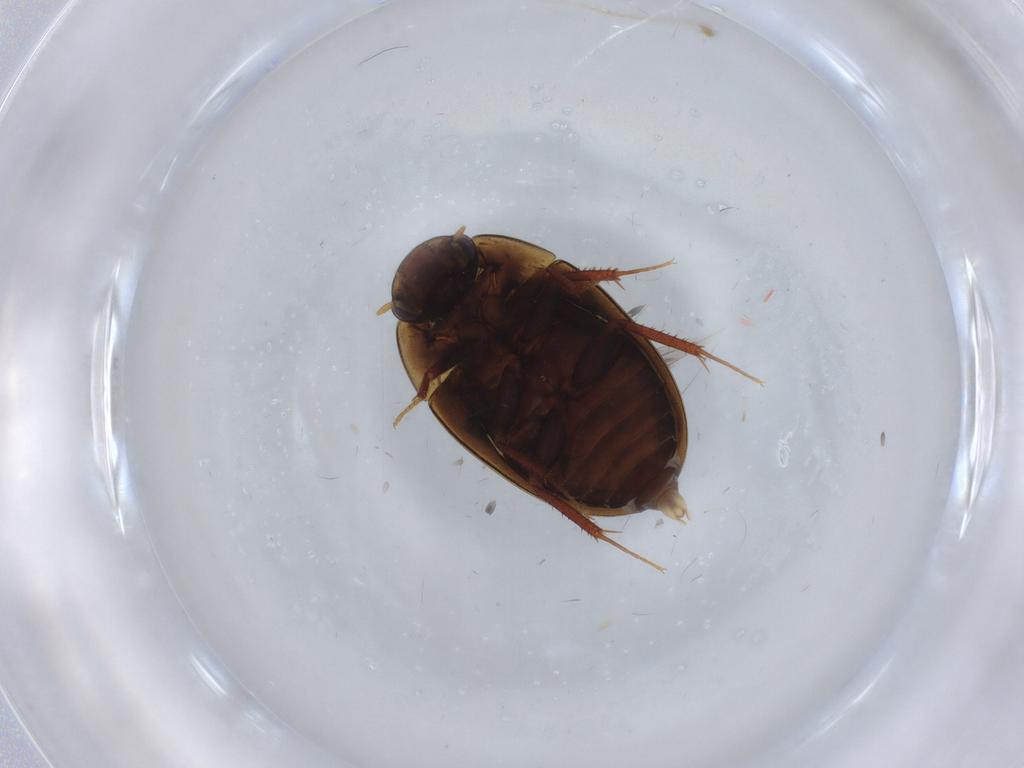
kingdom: Animalia
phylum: Arthropoda
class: Insecta
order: Coleoptera
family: Hydrophilidae
